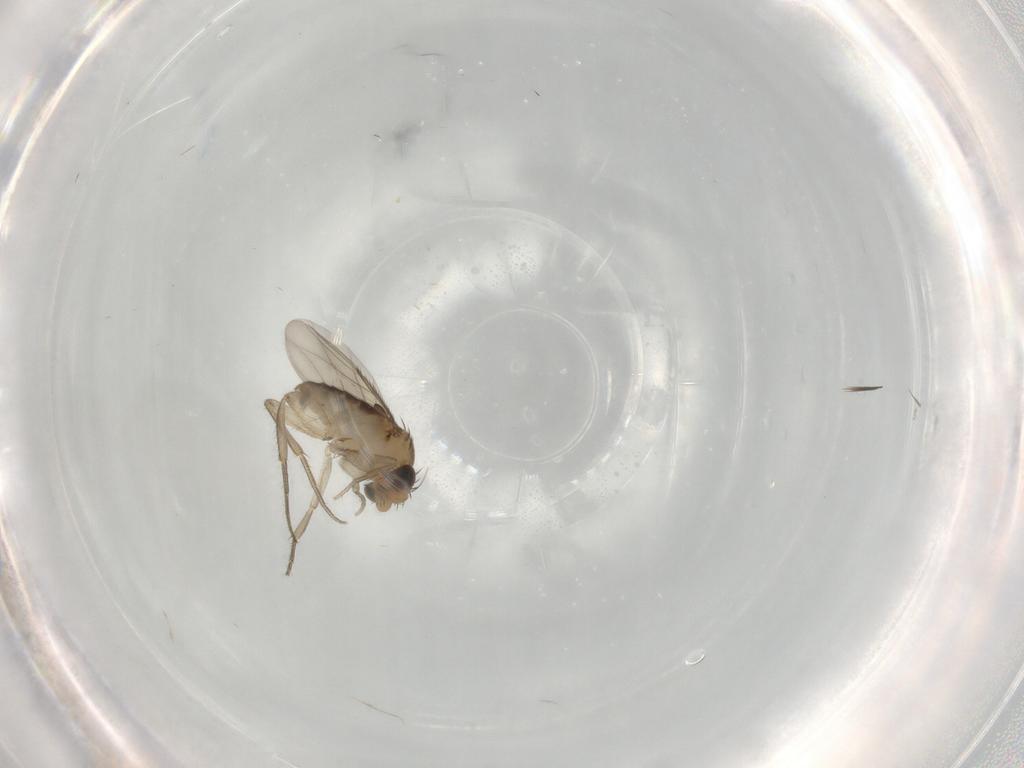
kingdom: Animalia
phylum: Arthropoda
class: Insecta
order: Diptera
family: Phoridae
